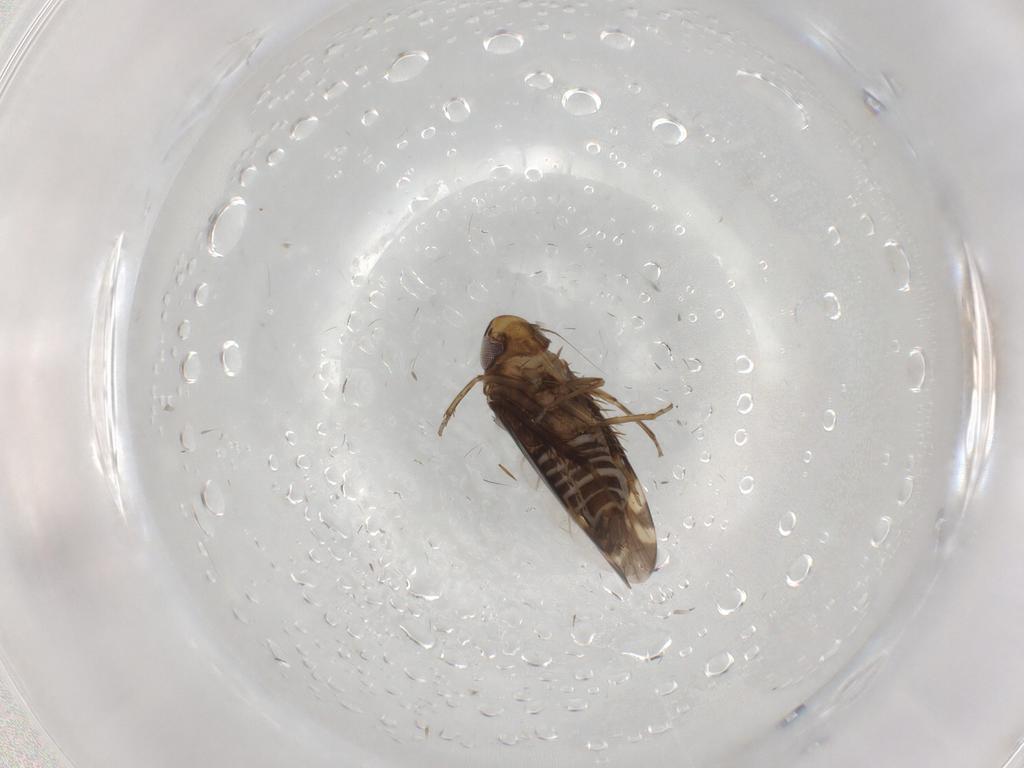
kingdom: Animalia
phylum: Arthropoda
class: Insecta
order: Hemiptera
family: Cicadellidae
